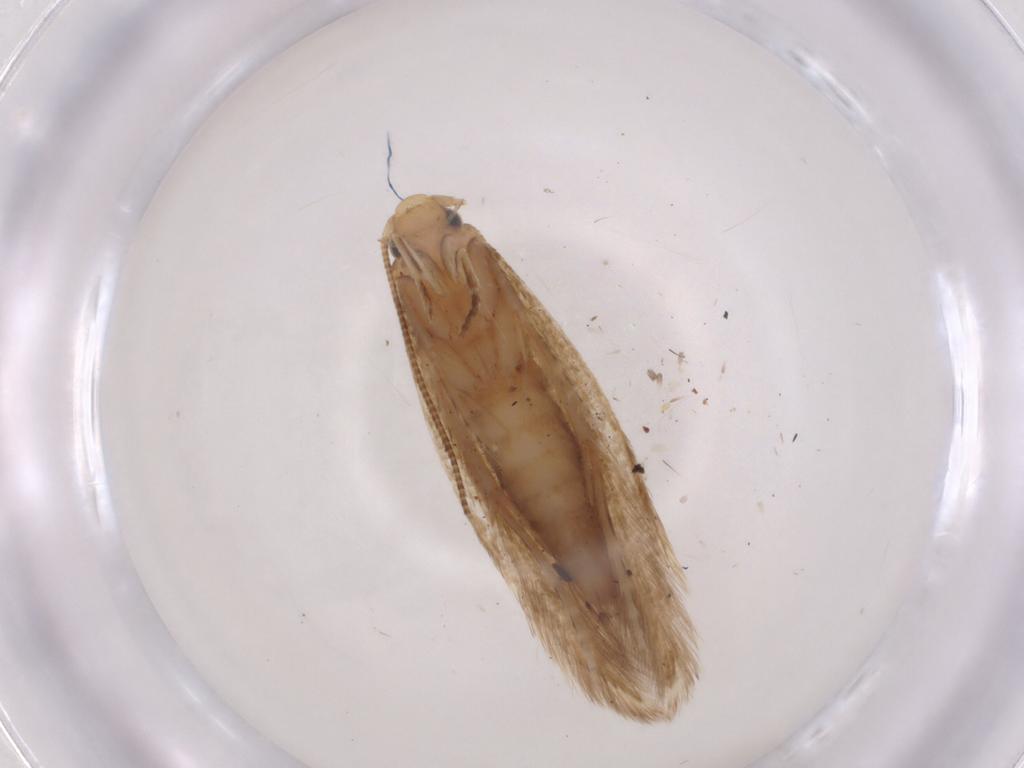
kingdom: Animalia
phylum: Arthropoda
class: Insecta
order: Lepidoptera
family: Tineidae
